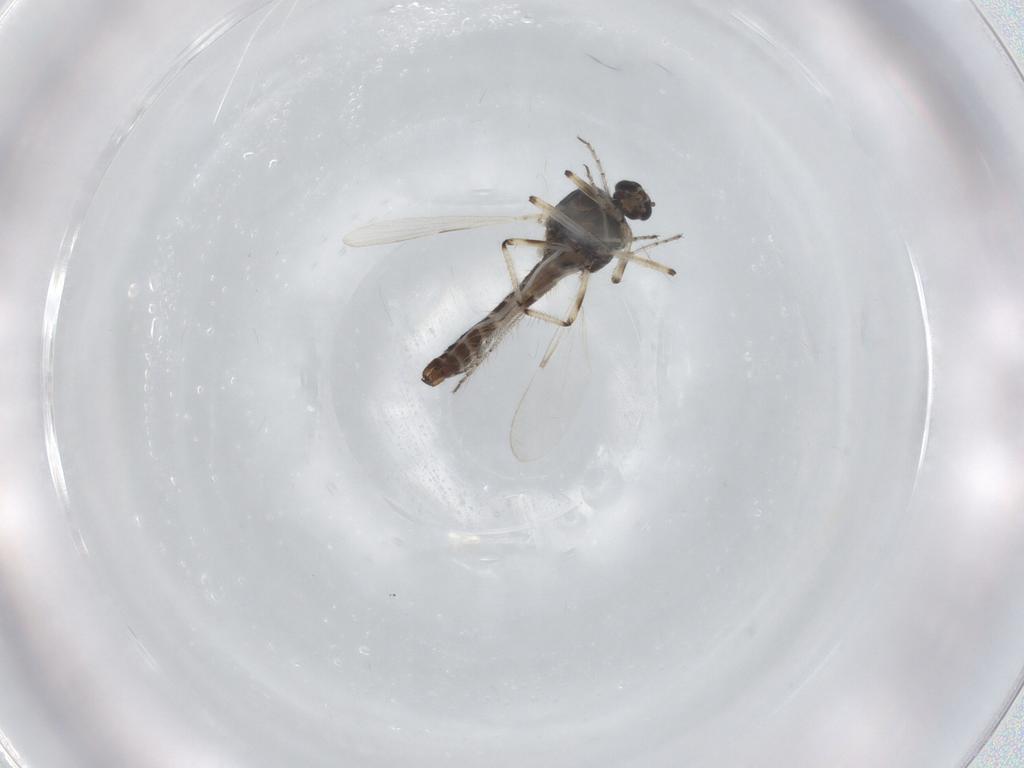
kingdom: Animalia
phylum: Arthropoda
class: Insecta
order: Diptera
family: Ceratopogonidae
